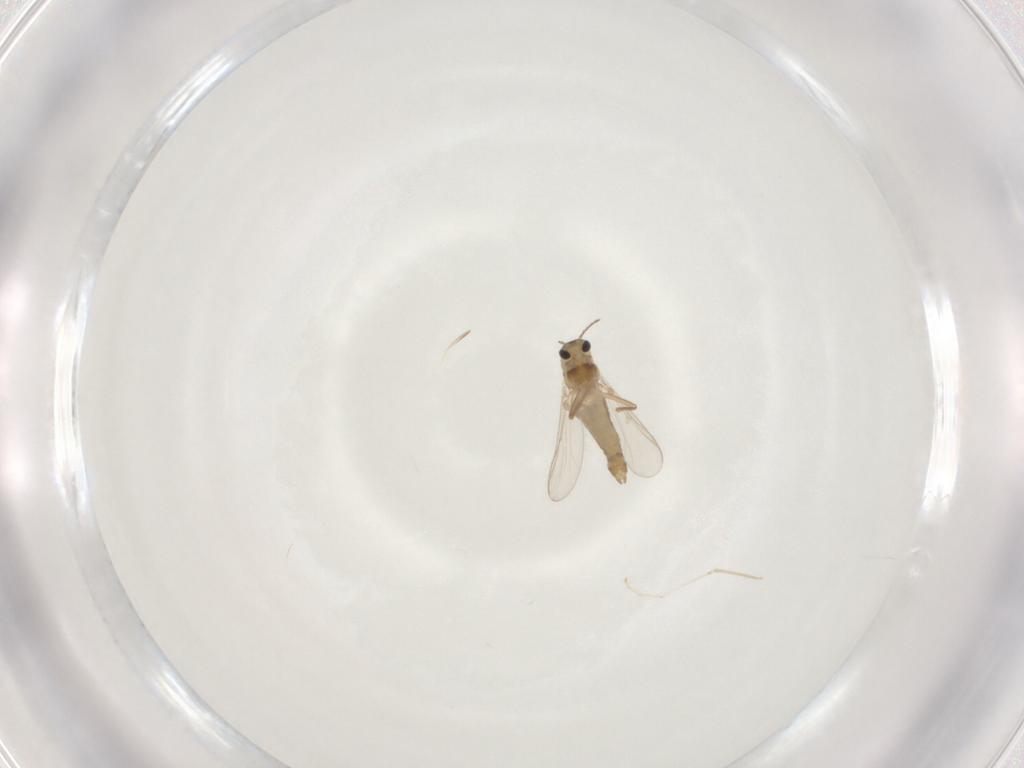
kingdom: Animalia
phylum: Arthropoda
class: Insecta
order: Diptera
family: Chironomidae
